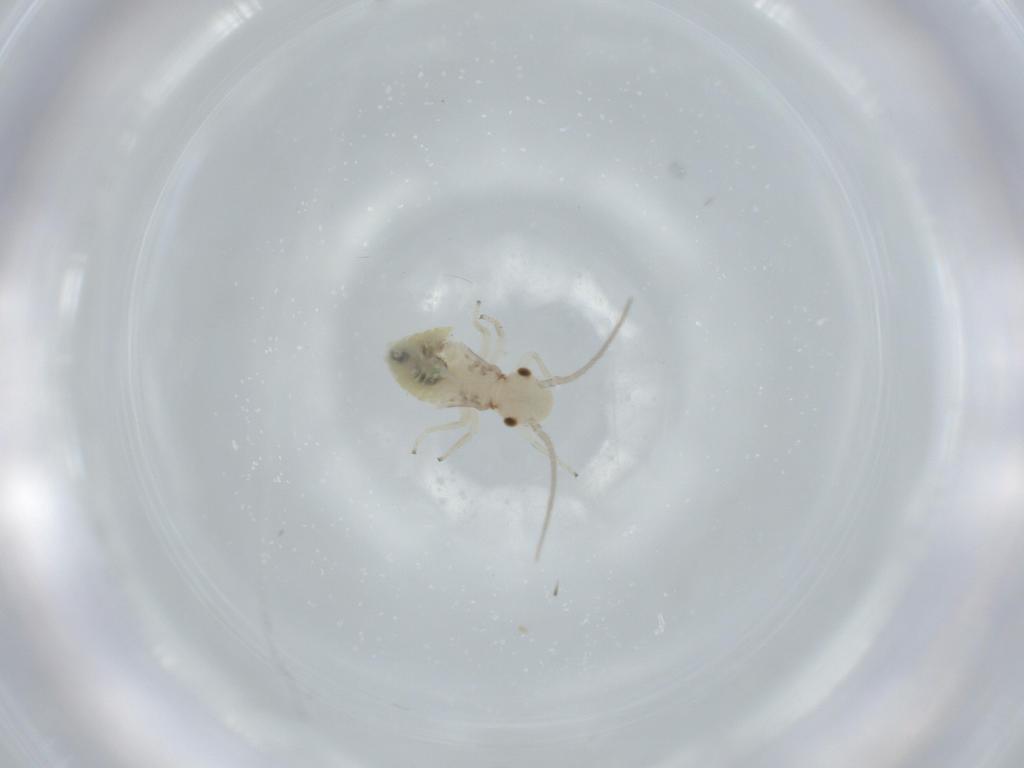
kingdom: Animalia
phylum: Arthropoda
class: Insecta
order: Psocodea
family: Caeciliusidae
